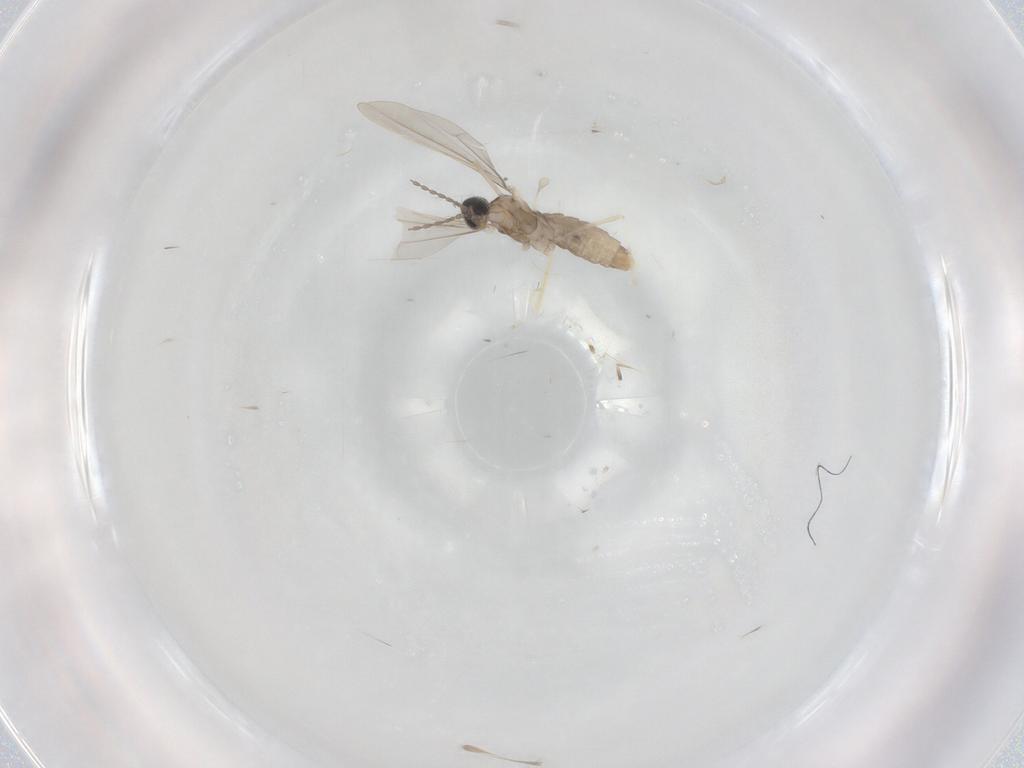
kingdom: Animalia
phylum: Arthropoda
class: Insecta
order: Diptera
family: Cecidomyiidae
